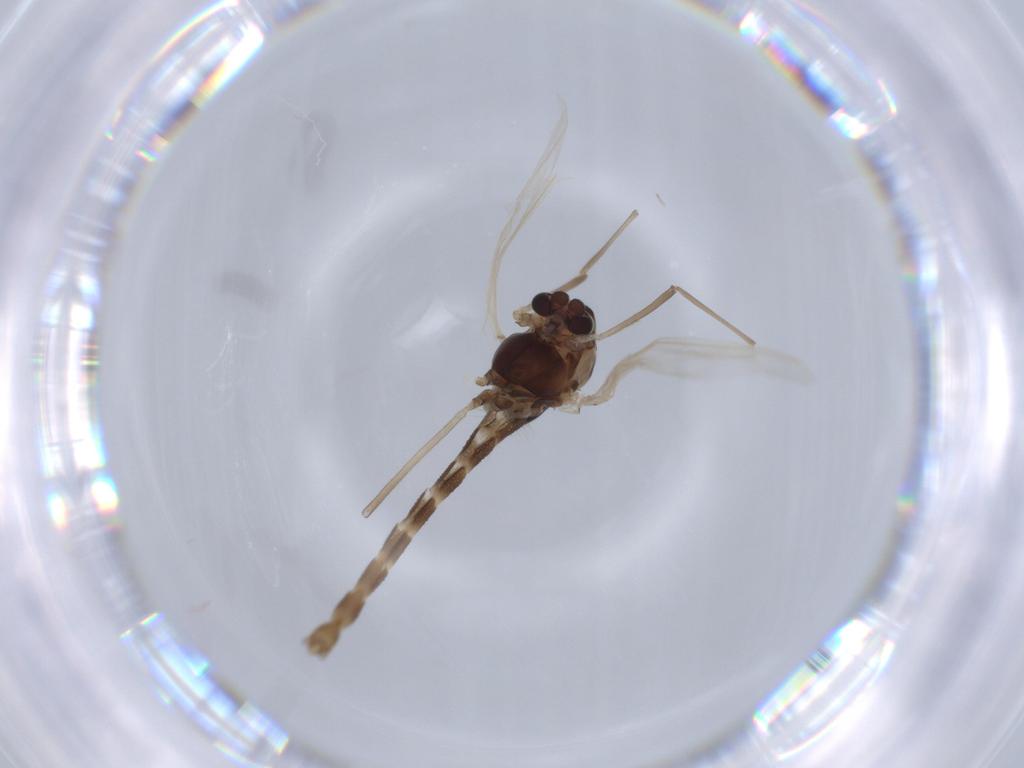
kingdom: Animalia
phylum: Arthropoda
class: Insecta
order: Diptera
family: Chironomidae
